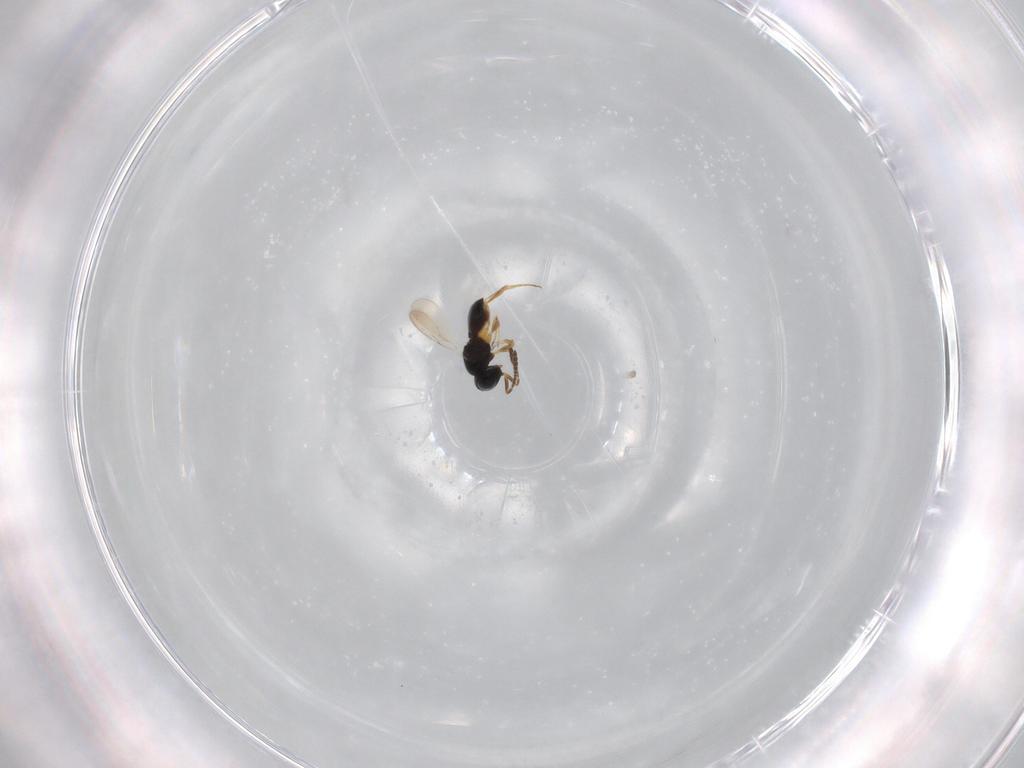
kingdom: Animalia
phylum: Arthropoda
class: Insecta
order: Hymenoptera
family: Scelionidae
